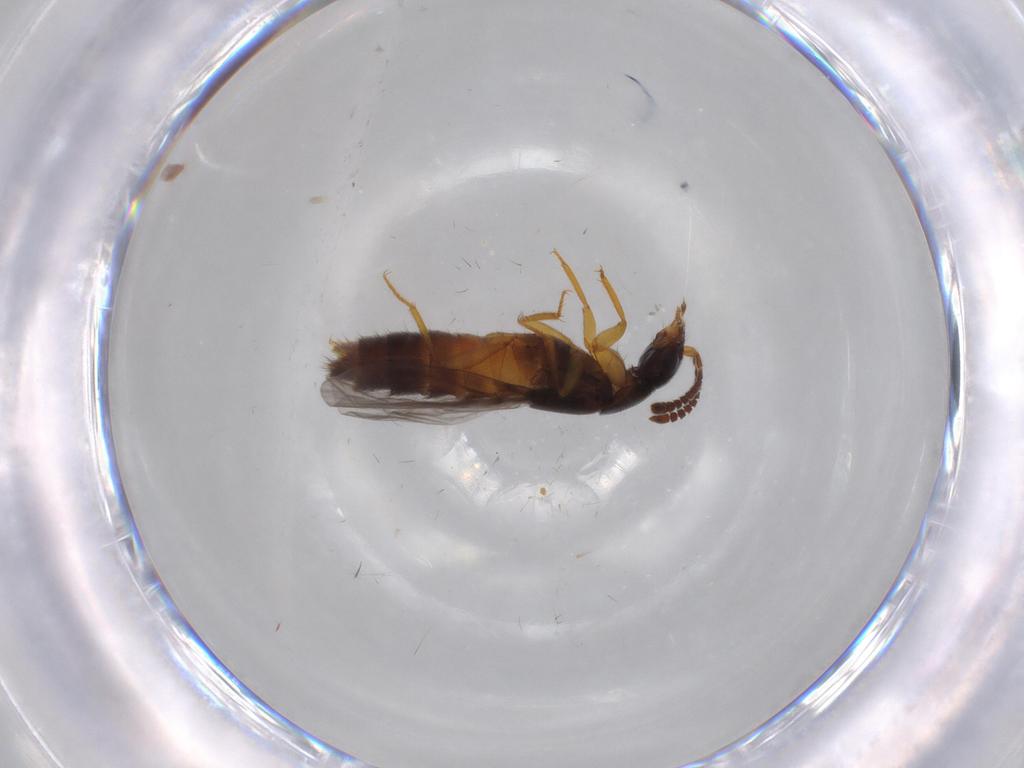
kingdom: Animalia
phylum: Arthropoda
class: Insecta
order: Coleoptera
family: Staphylinidae
